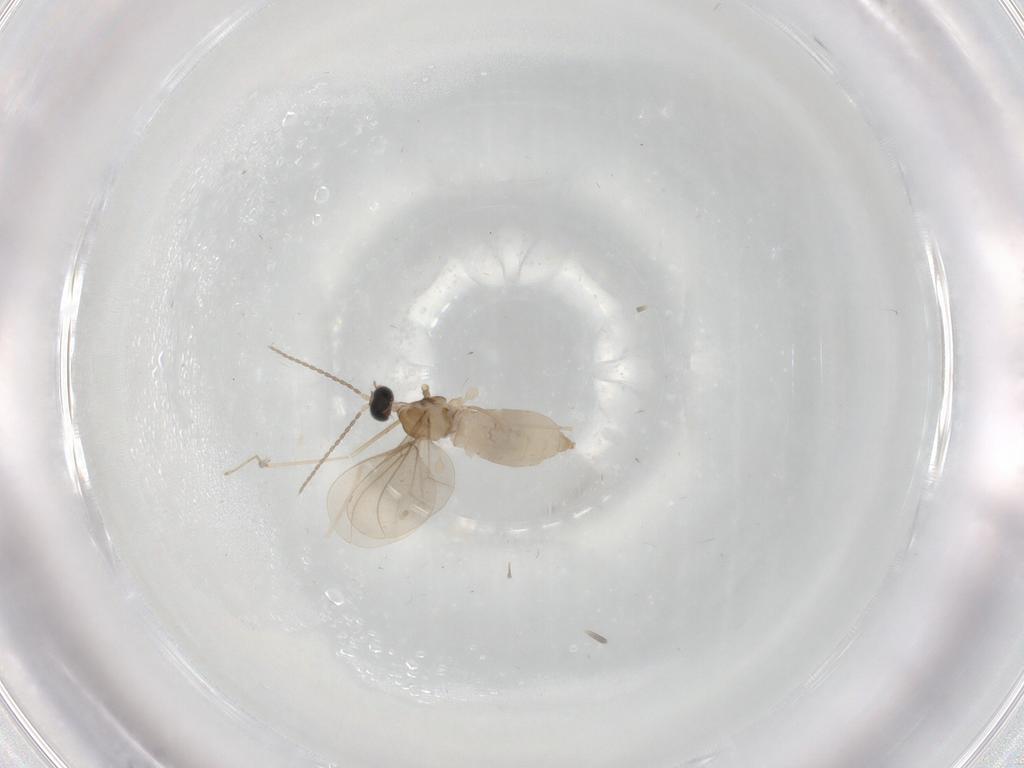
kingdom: Animalia
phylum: Arthropoda
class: Insecta
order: Diptera
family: Cecidomyiidae
